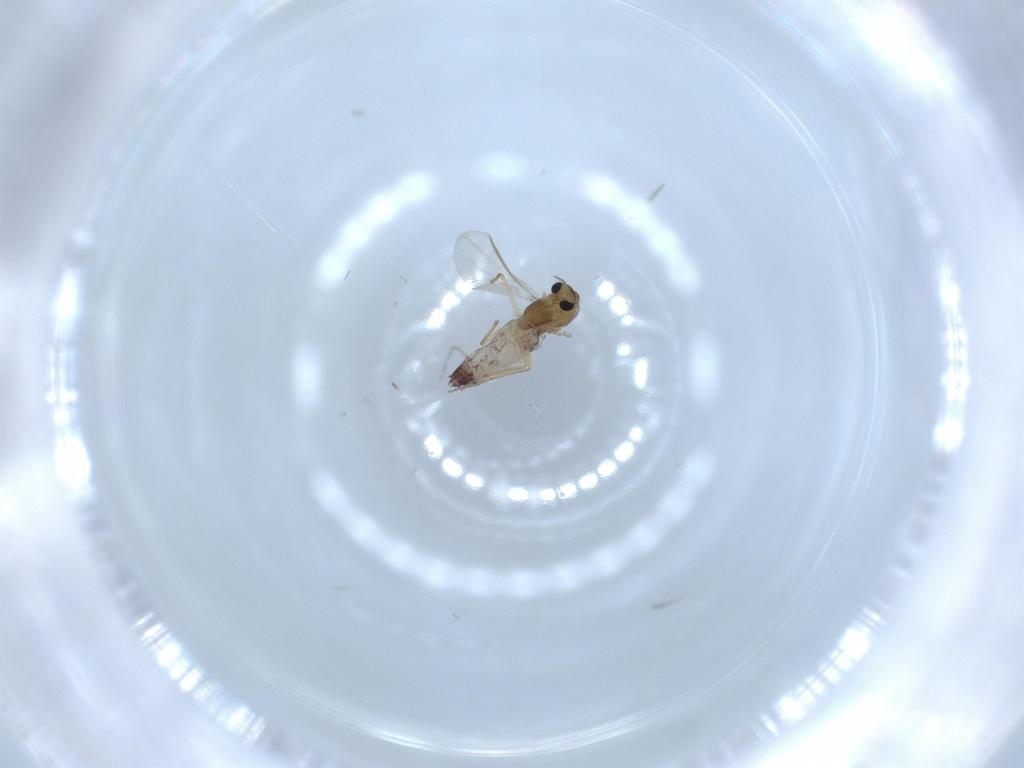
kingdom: Animalia
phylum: Arthropoda
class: Insecta
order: Diptera
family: Chironomidae
